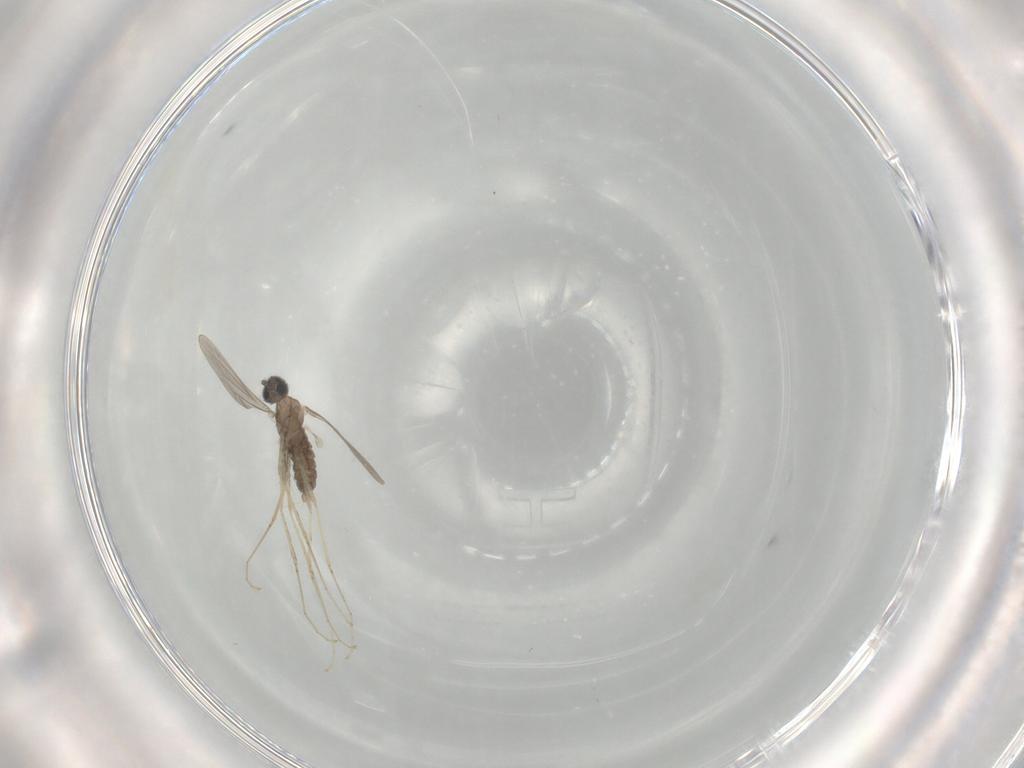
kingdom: Animalia
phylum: Arthropoda
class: Insecta
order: Diptera
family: Cecidomyiidae
